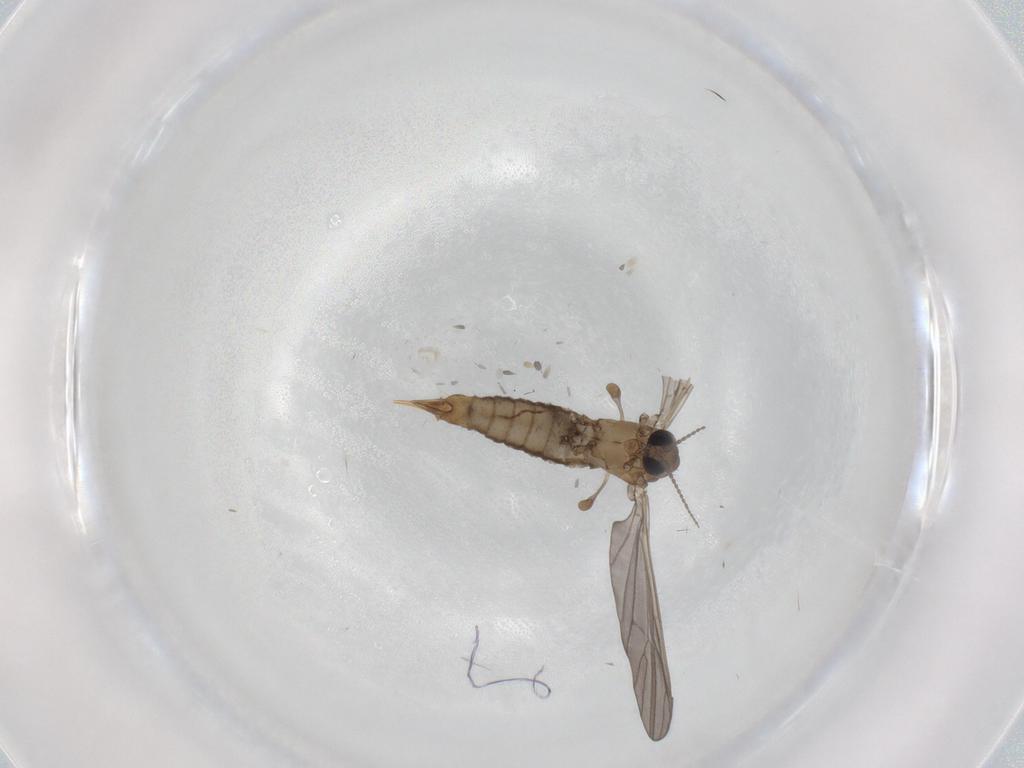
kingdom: Animalia
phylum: Arthropoda
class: Insecta
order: Diptera
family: Limoniidae
